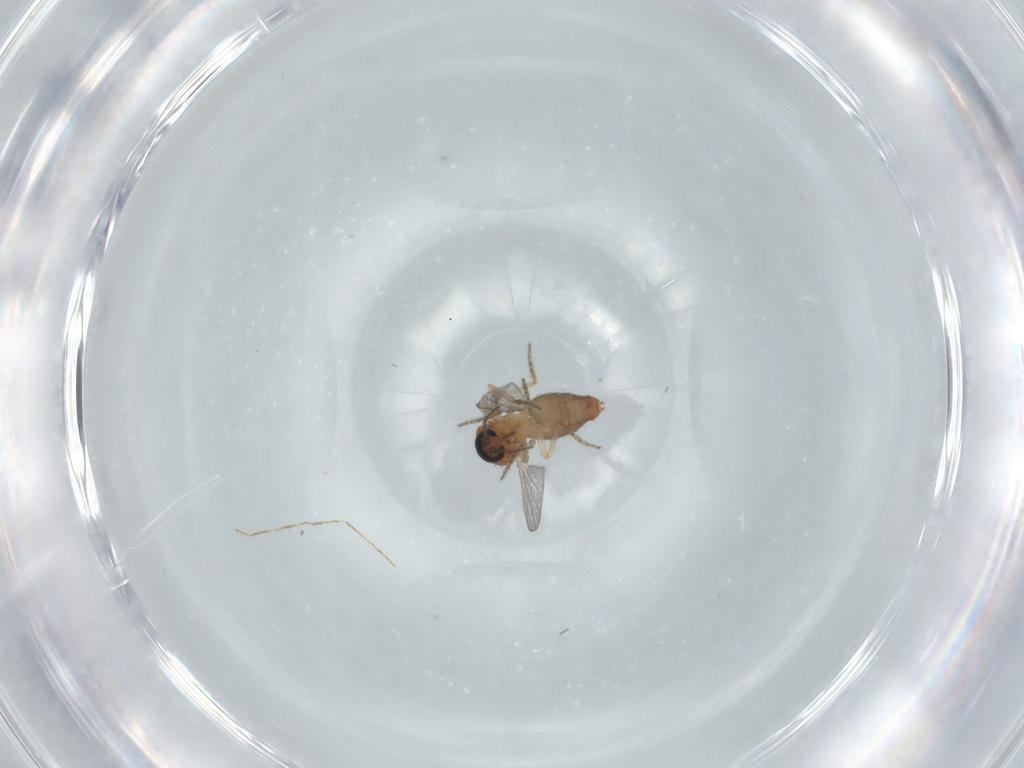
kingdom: Animalia
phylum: Arthropoda
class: Insecta
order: Diptera
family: Ceratopogonidae
